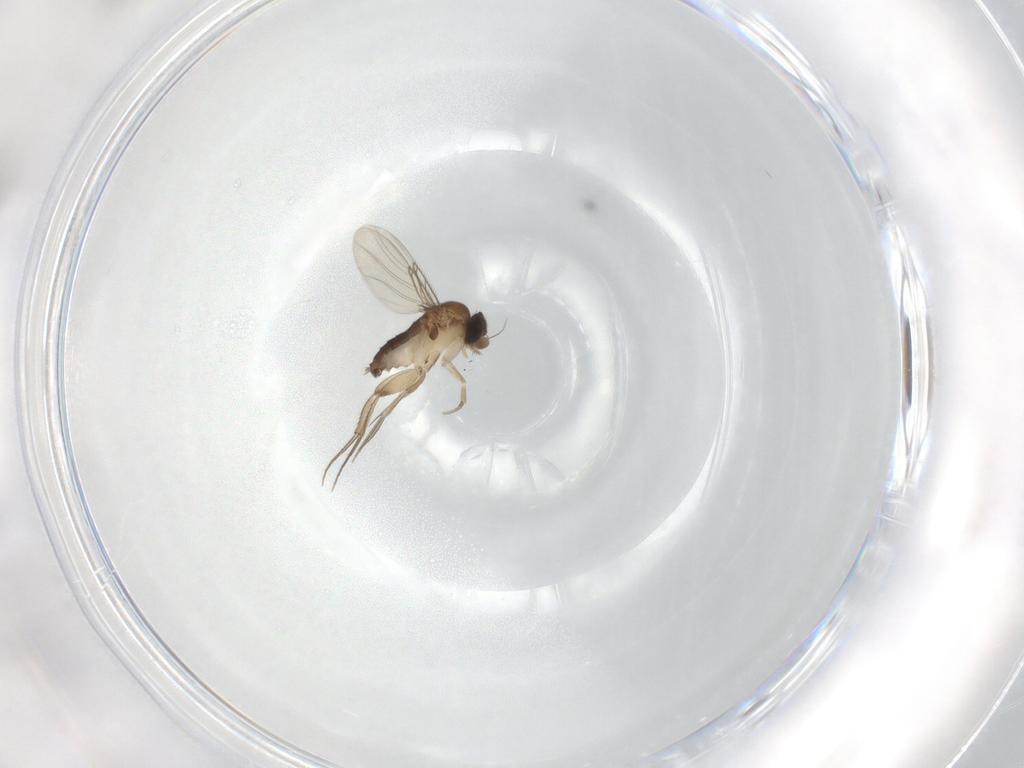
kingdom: Animalia
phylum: Arthropoda
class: Insecta
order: Diptera
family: Phoridae
